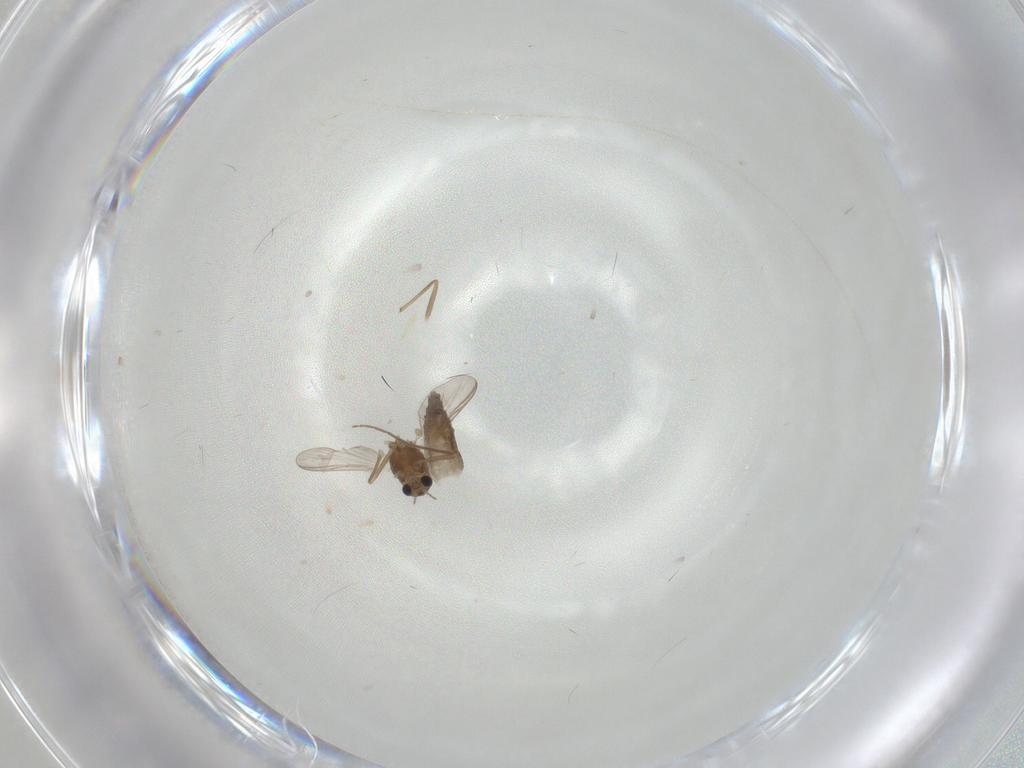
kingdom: Animalia
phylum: Arthropoda
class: Insecta
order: Diptera
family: Chironomidae
